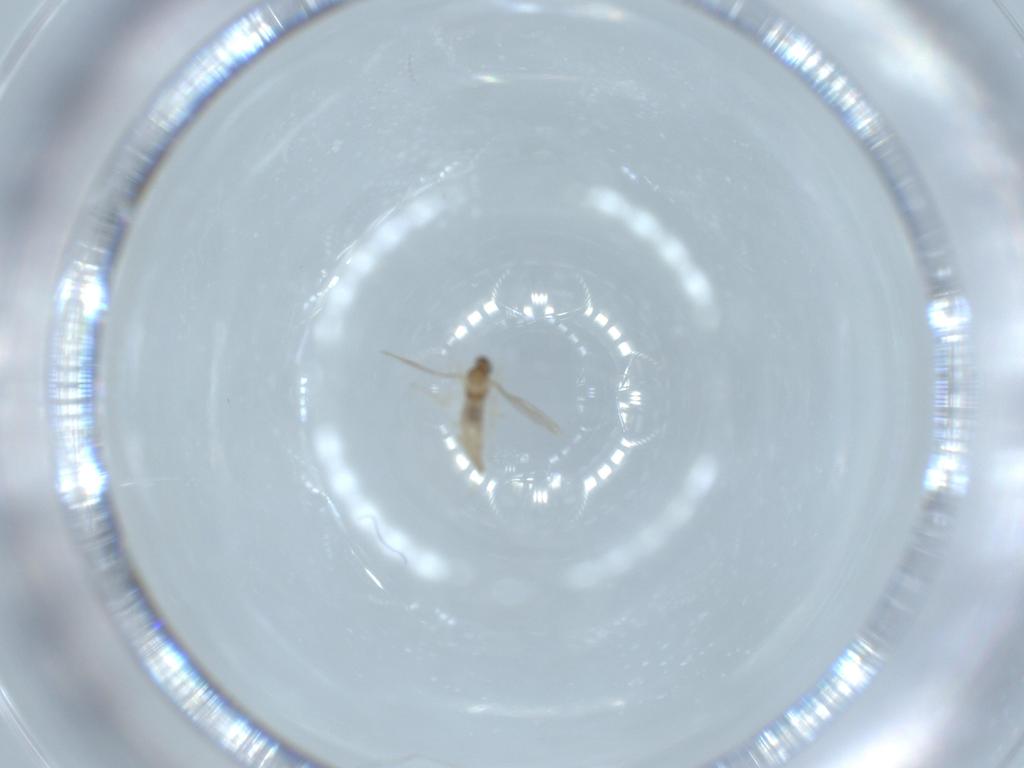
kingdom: Animalia
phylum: Arthropoda
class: Insecta
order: Diptera
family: Cecidomyiidae
